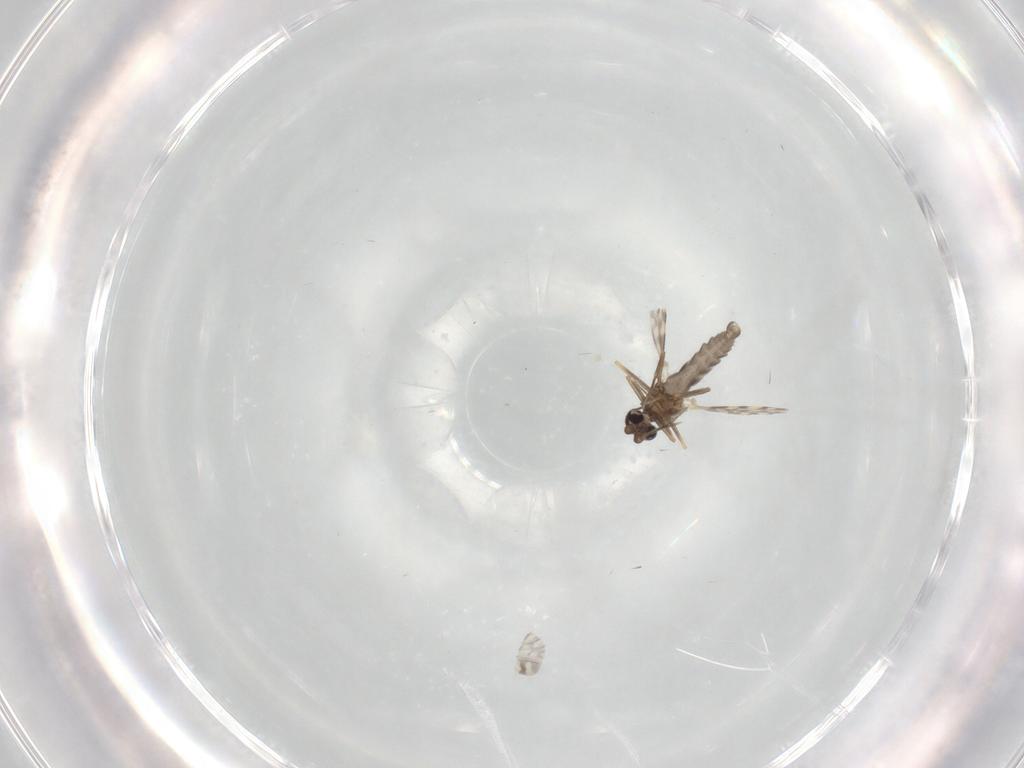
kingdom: Animalia
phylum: Arthropoda
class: Insecta
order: Diptera
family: Ceratopogonidae
